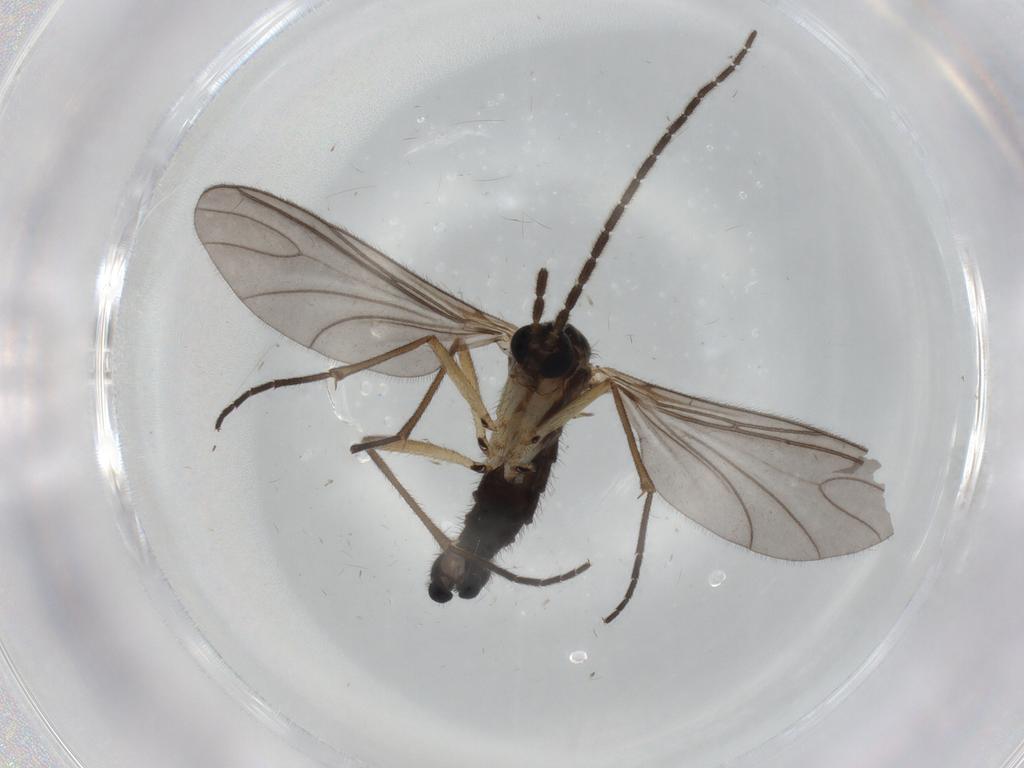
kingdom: Animalia
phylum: Arthropoda
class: Insecta
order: Diptera
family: Sciaridae
